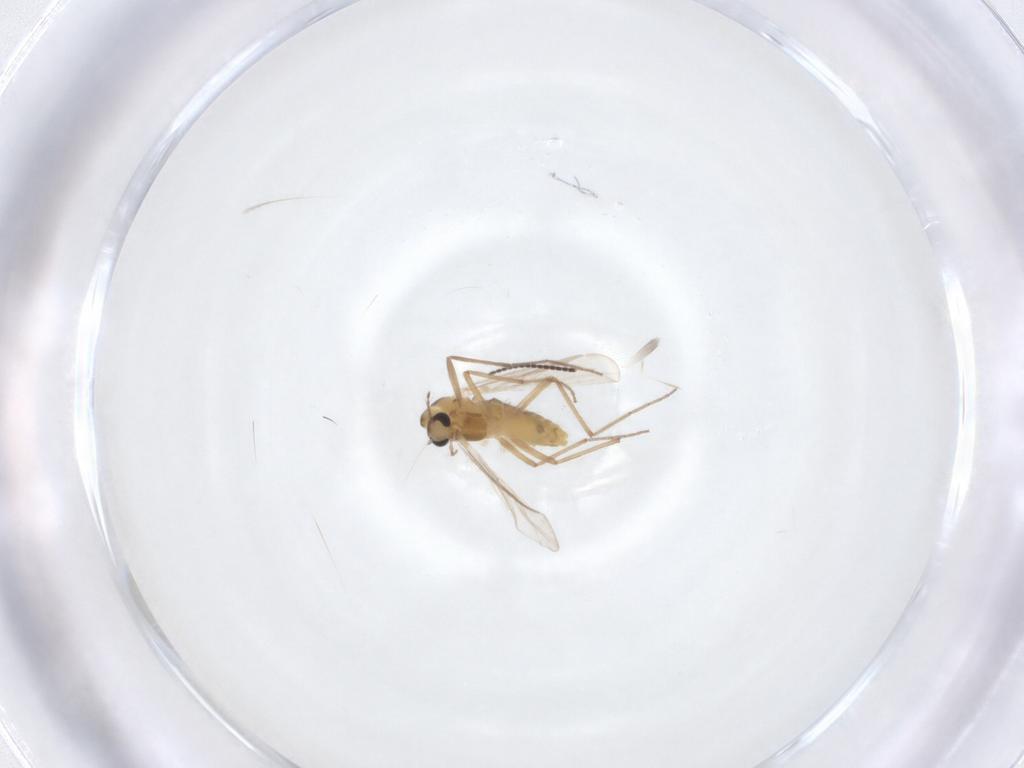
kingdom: Animalia
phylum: Arthropoda
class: Insecta
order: Diptera
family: Chironomidae
